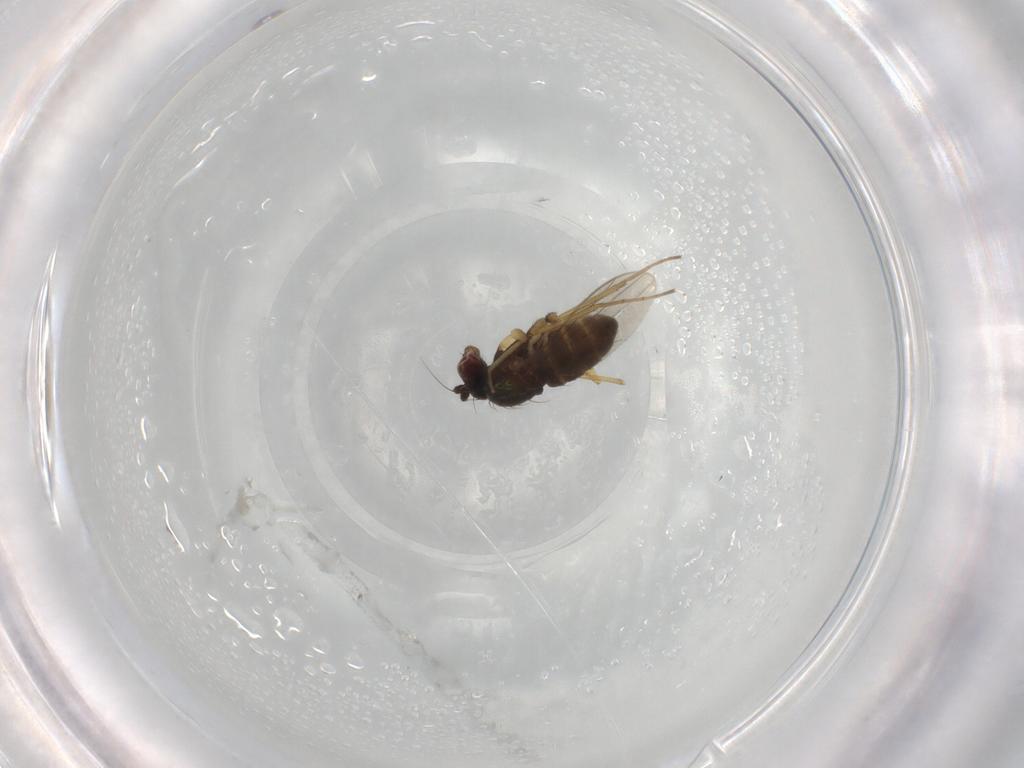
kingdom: Animalia
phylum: Arthropoda
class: Insecta
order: Diptera
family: Dolichopodidae
